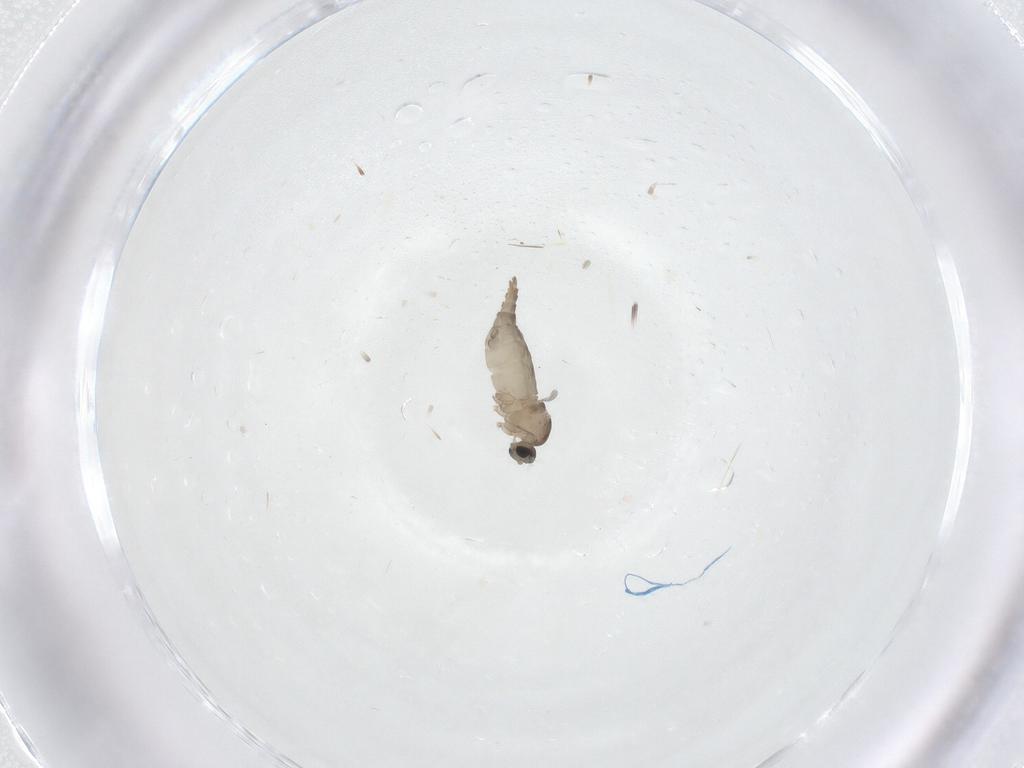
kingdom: Animalia
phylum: Arthropoda
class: Insecta
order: Diptera
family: Cecidomyiidae
